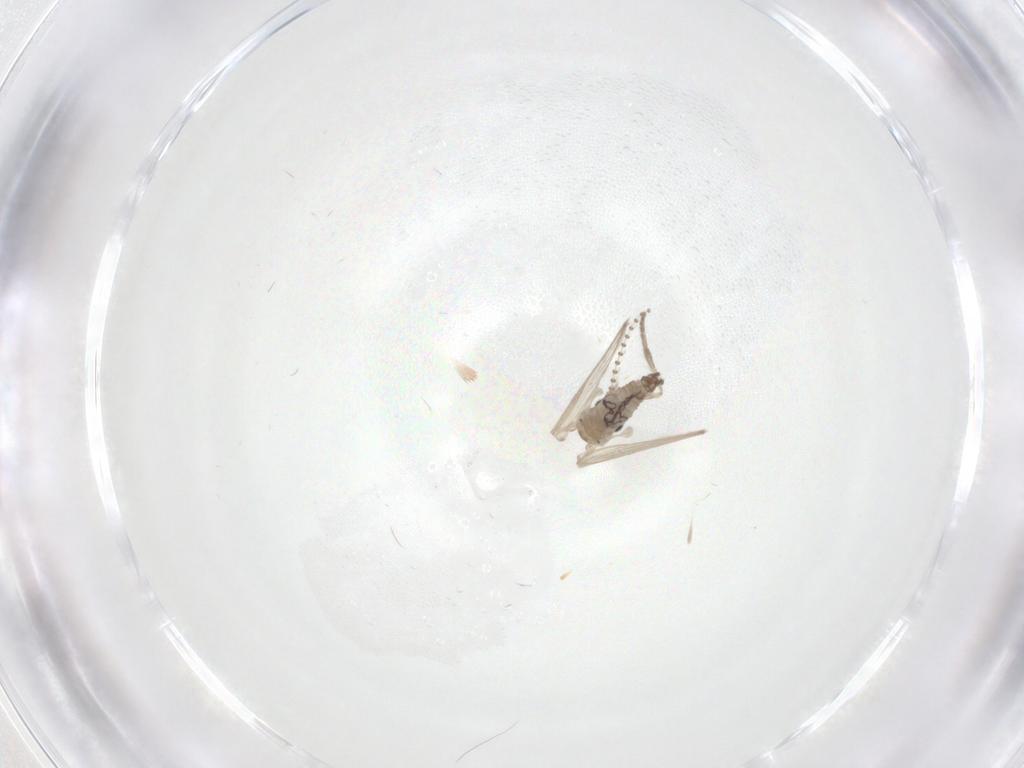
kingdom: Animalia
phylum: Arthropoda
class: Insecta
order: Diptera
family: Psychodidae
